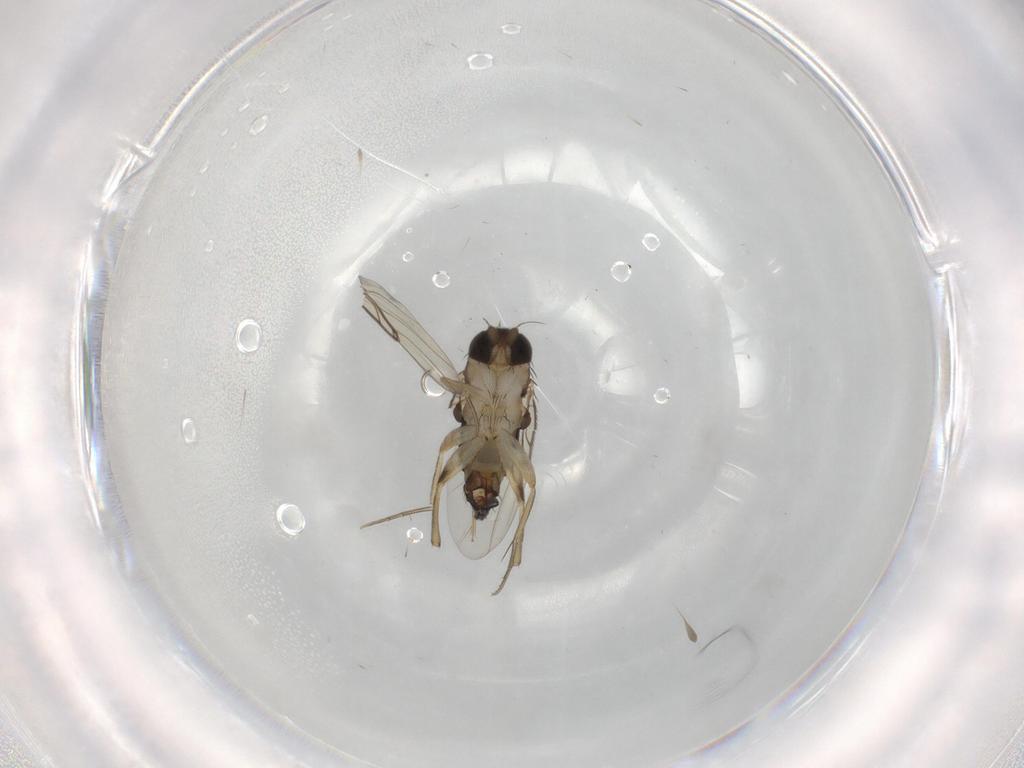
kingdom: Animalia
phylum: Arthropoda
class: Insecta
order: Diptera
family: Phoridae
